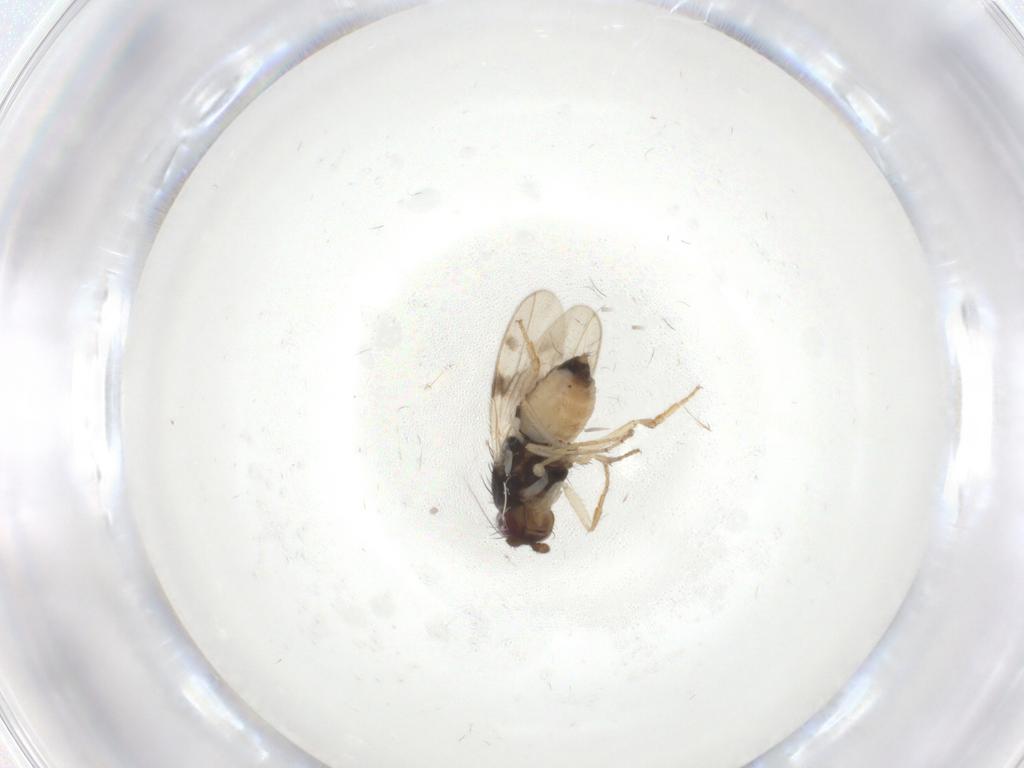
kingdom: Animalia
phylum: Arthropoda
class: Insecta
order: Diptera
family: Sphaeroceridae
